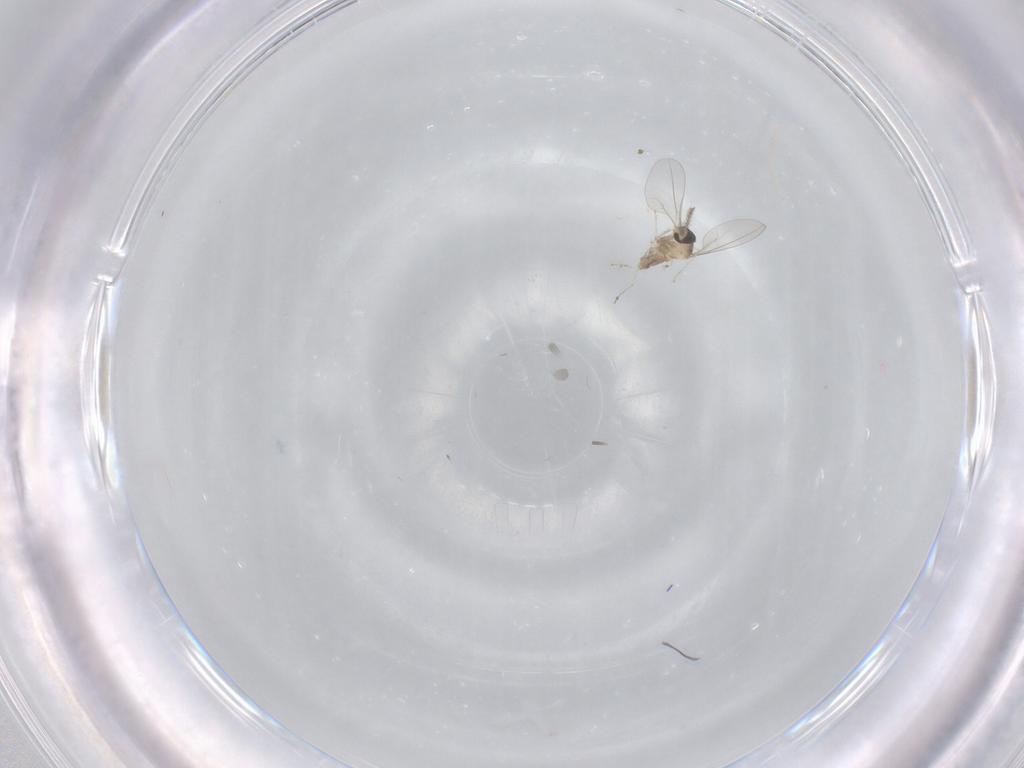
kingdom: Animalia
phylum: Arthropoda
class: Insecta
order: Diptera
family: Cecidomyiidae
